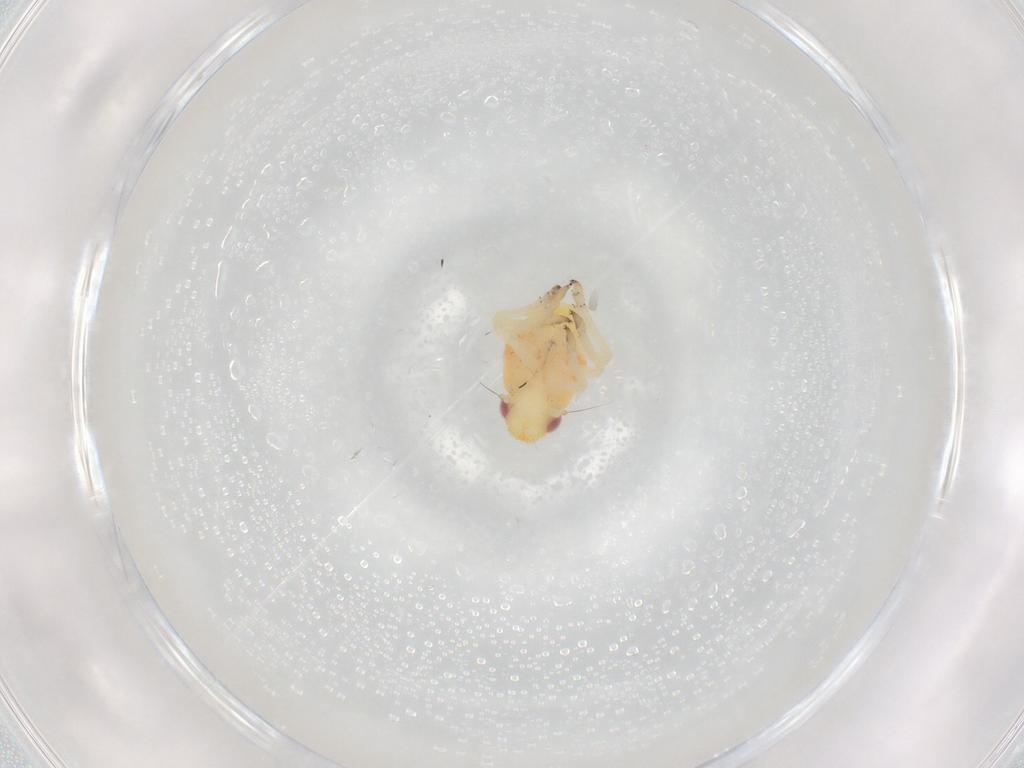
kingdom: Animalia
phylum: Arthropoda
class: Insecta
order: Hemiptera
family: Caliscelidae
